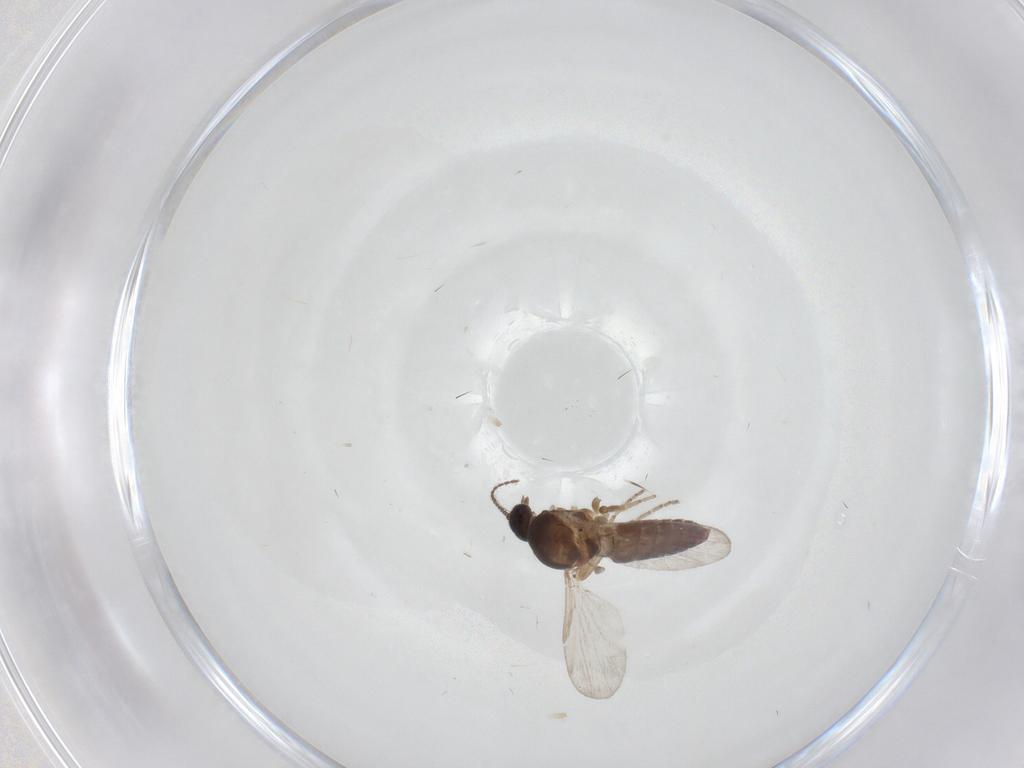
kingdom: Animalia
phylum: Arthropoda
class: Insecta
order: Diptera
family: Ceratopogonidae
